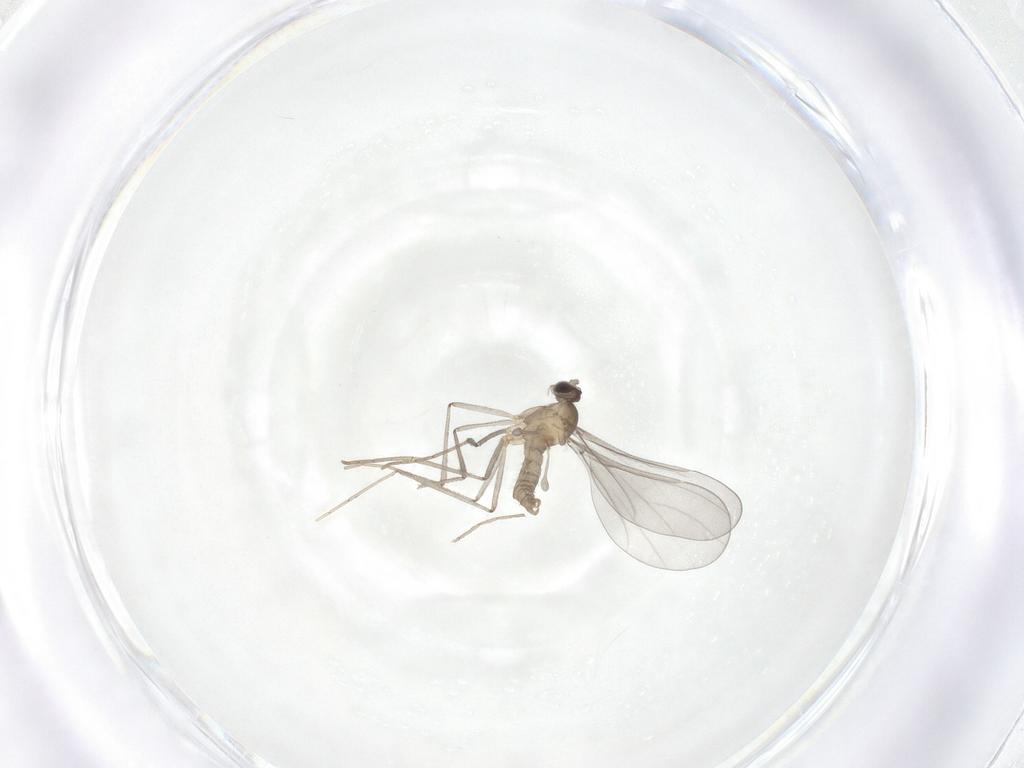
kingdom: Animalia
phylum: Arthropoda
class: Insecta
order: Diptera
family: Cecidomyiidae
